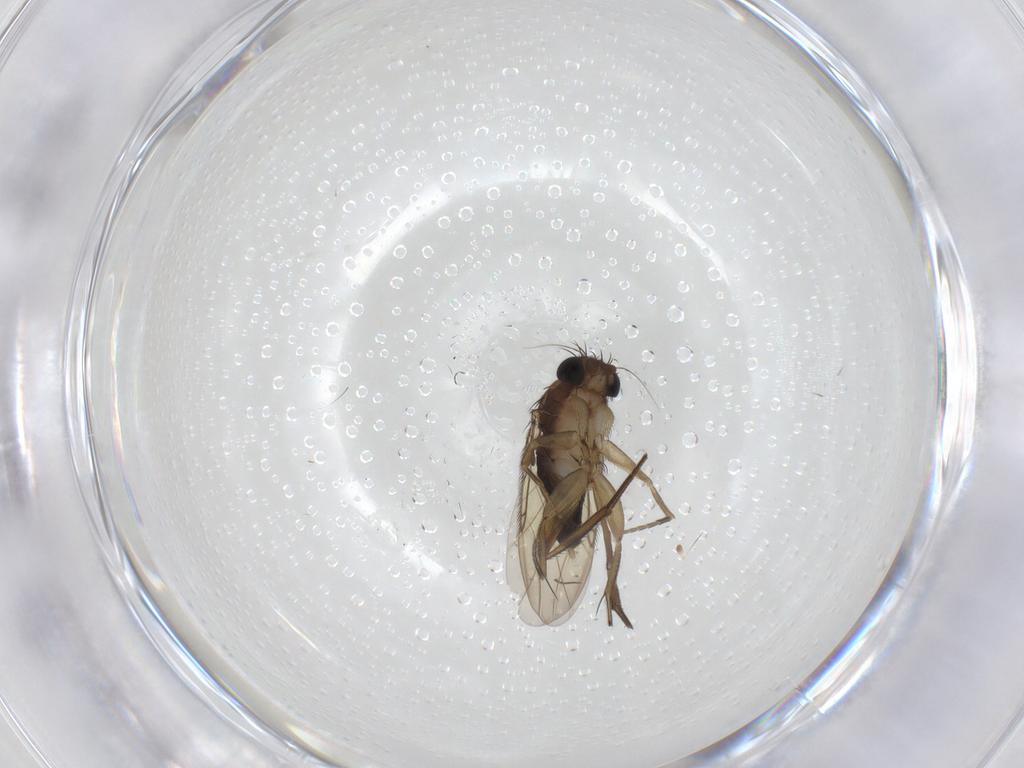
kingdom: Animalia
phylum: Arthropoda
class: Insecta
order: Diptera
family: Phoridae
